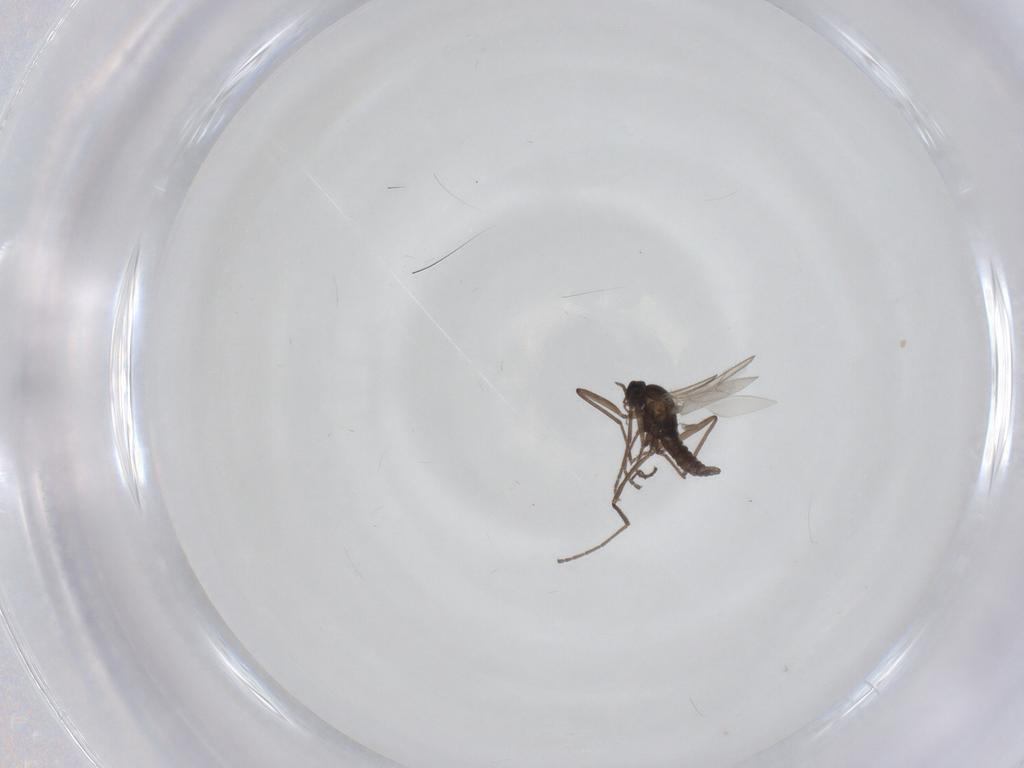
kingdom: Animalia
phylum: Arthropoda
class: Insecta
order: Diptera
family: Cecidomyiidae
